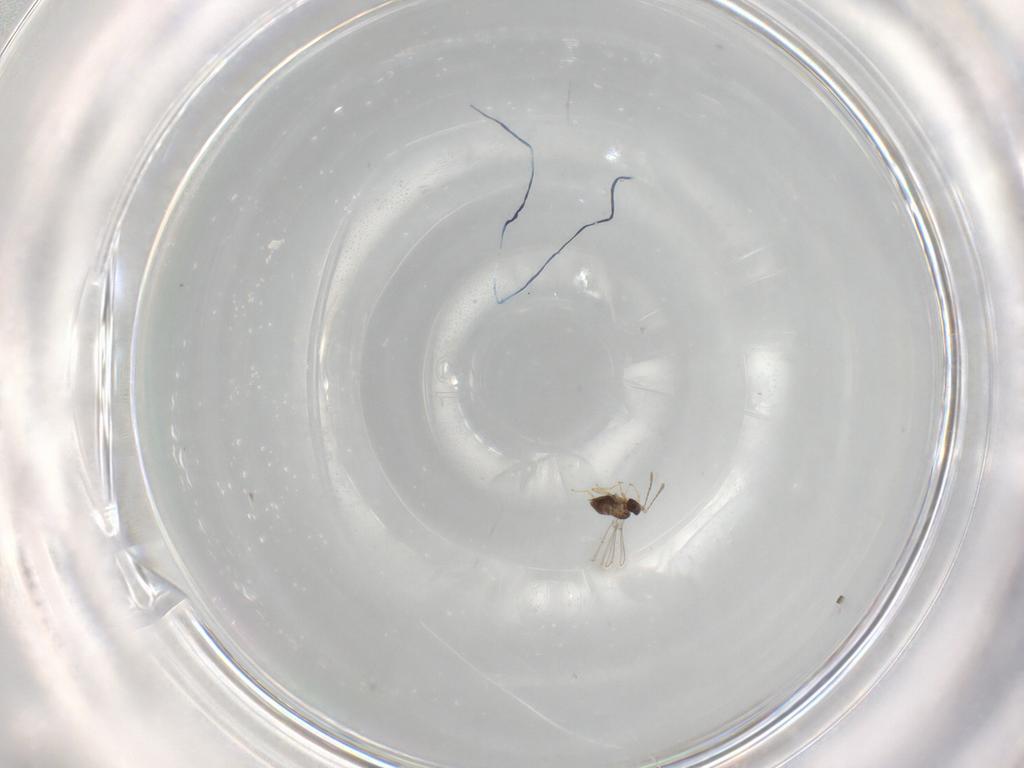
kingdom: Animalia
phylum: Arthropoda
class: Insecta
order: Hymenoptera
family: Mymaridae
